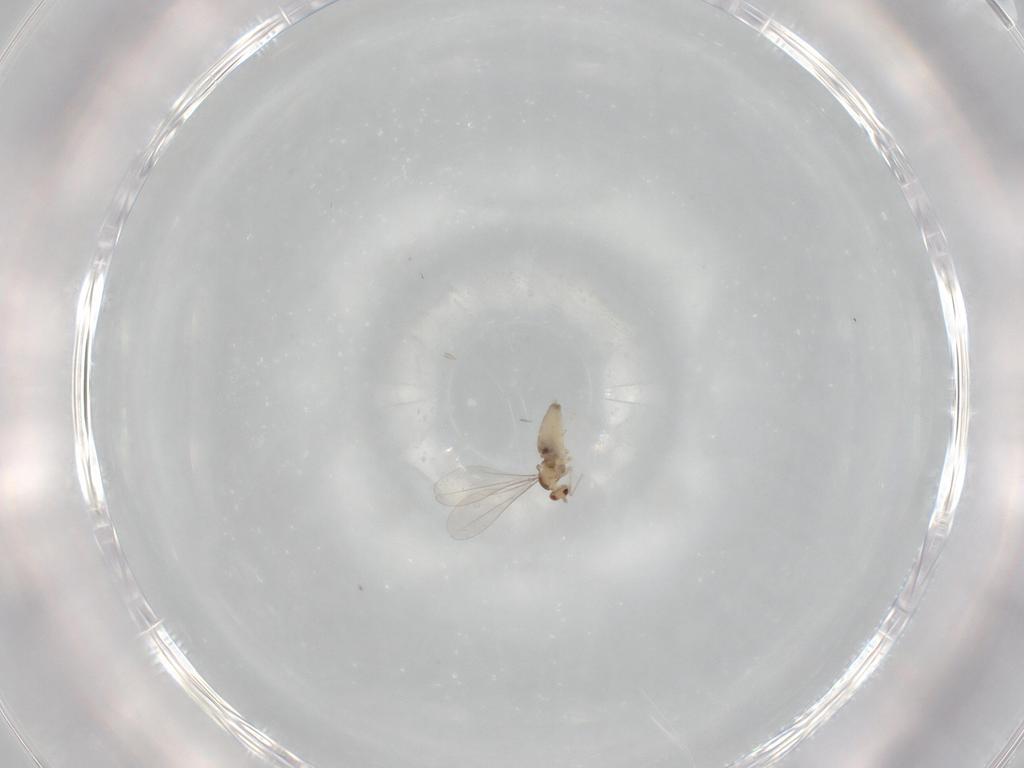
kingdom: Animalia
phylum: Arthropoda
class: Insecta
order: Diptera
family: Cecidomyiidae
